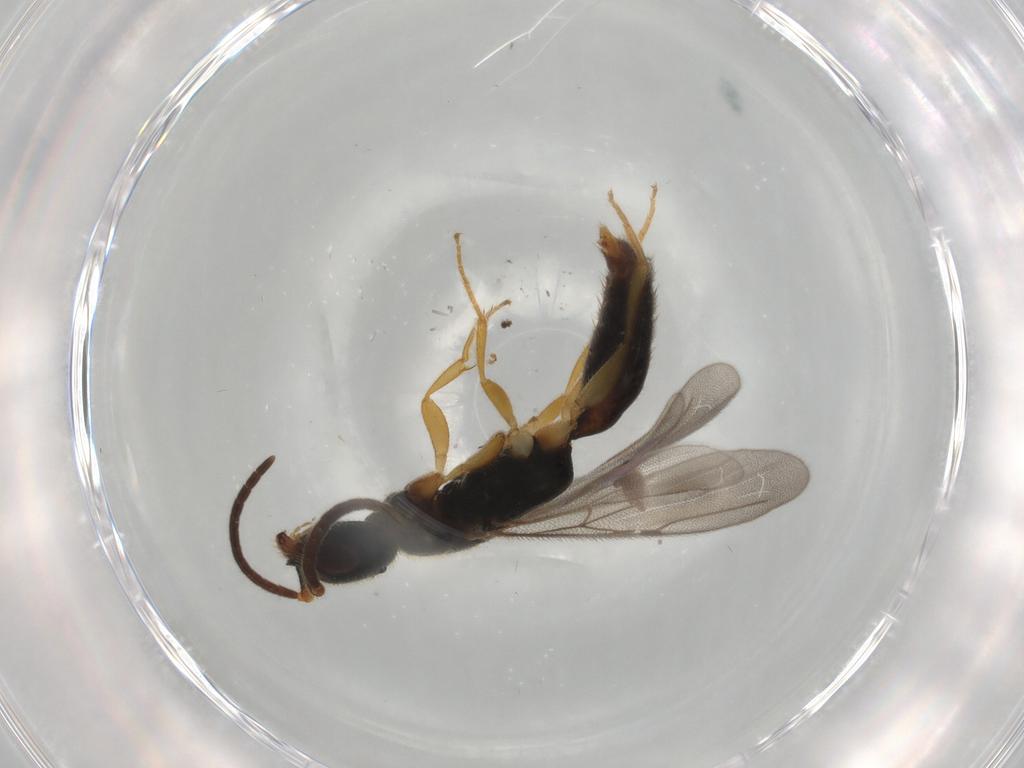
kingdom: Animalia
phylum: Arthropoda
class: Insecta
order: Hymenoptera
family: Bethylidae
